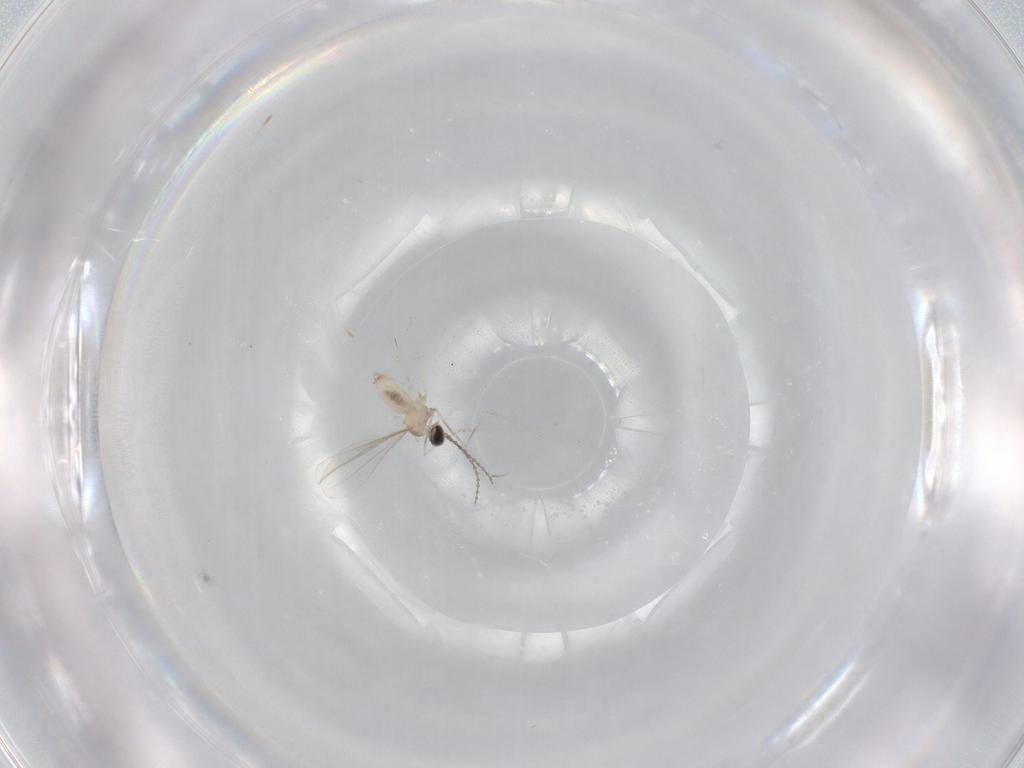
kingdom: Animalia
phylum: Arthropoda
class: Insecta
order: Diptera
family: Cecidomyiidae
